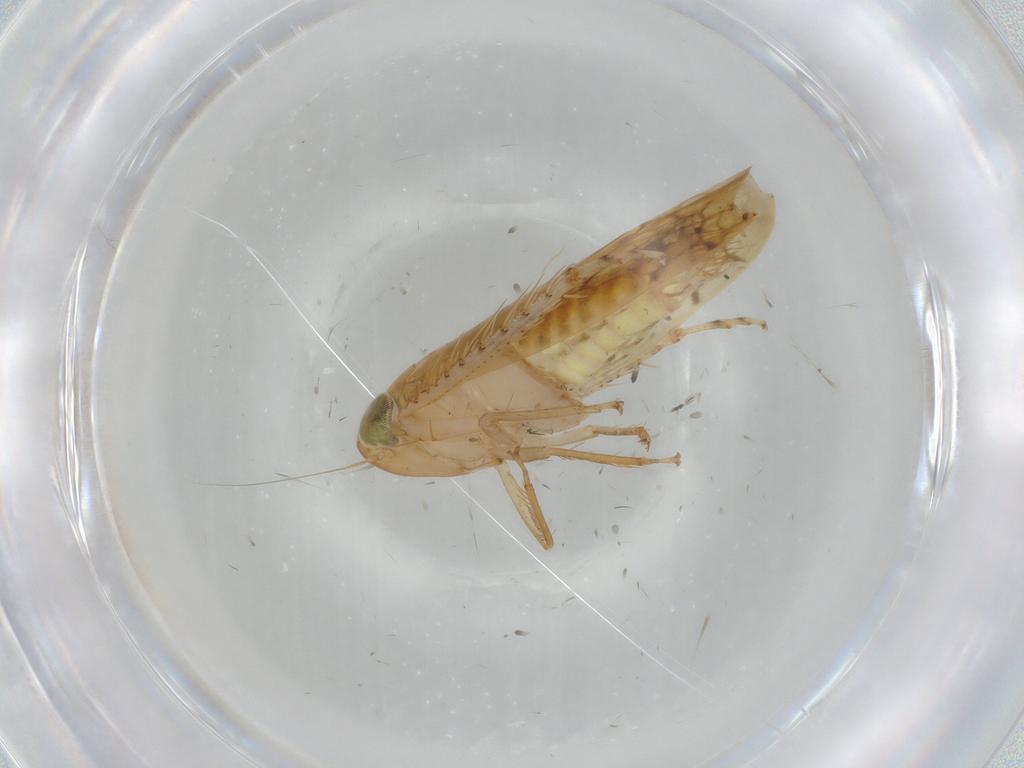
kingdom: Animalia
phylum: Arthropoda
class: Insecta
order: Hemiptera
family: Cicadellidae
